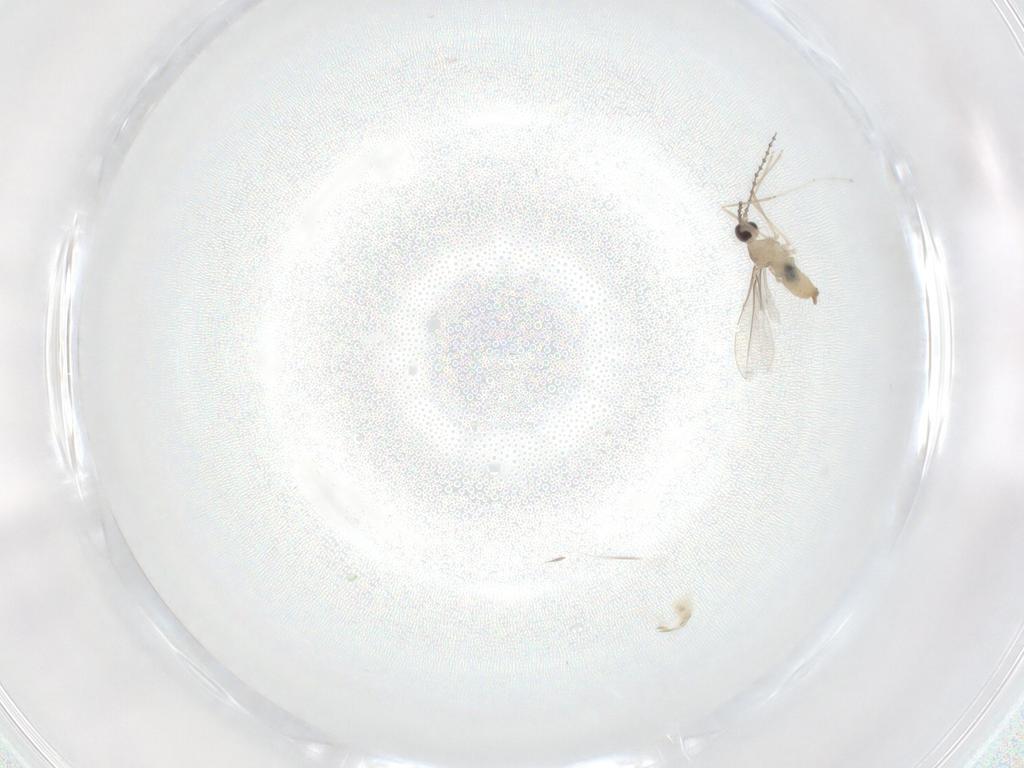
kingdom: Animalia
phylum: Arthropoda
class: Insecta
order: Diptera
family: Cecidomyiidae
